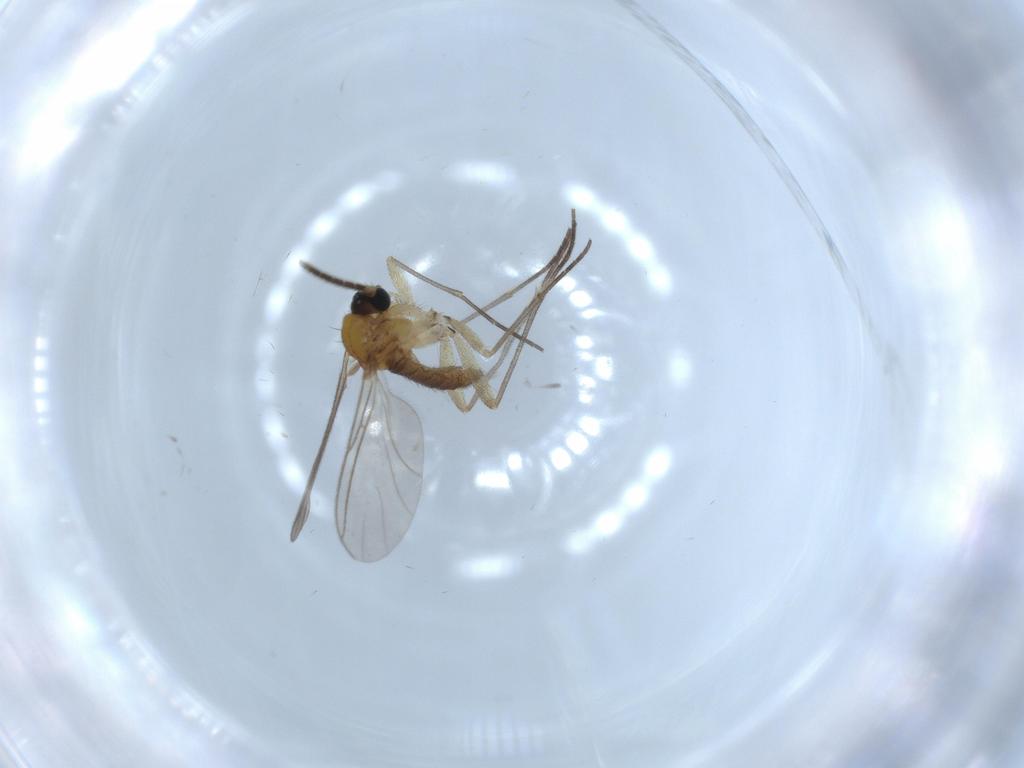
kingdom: Animalia
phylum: Arthropoda
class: Insecta
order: Diptera
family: Sciaridae
